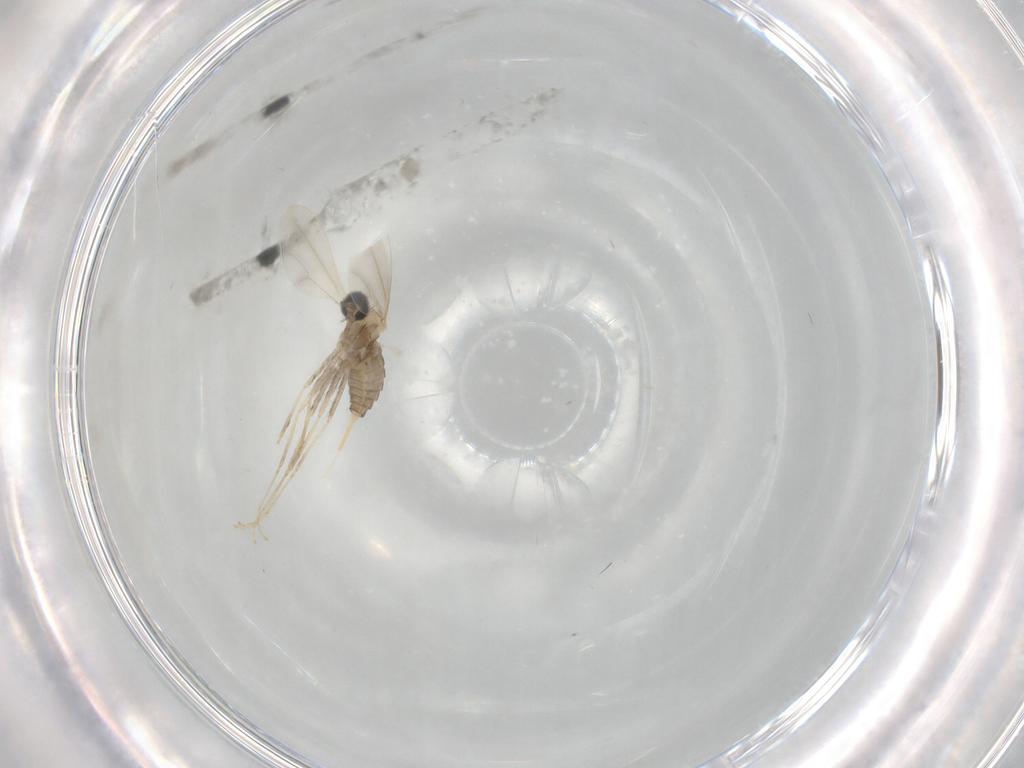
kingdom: Animalia
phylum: Arthropoda
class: Insecta
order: Diptera
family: Cecidomyiidae
